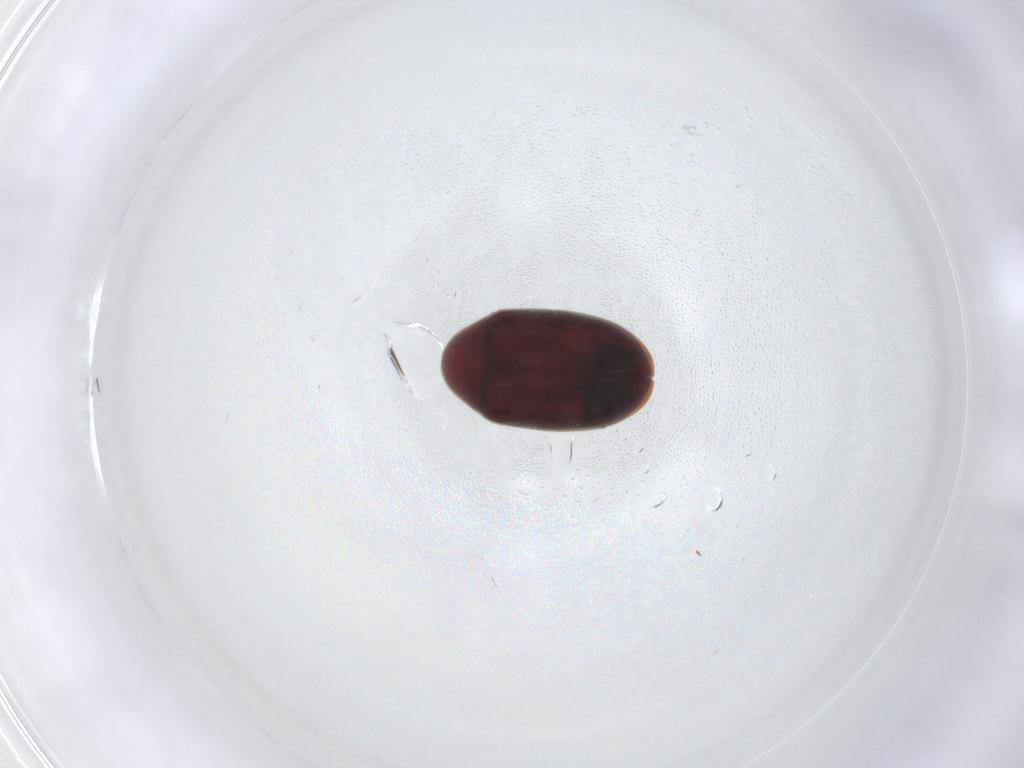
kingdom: Animalia
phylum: Arthropoda
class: Insecta
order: Coleoptera
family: Ptinidae
